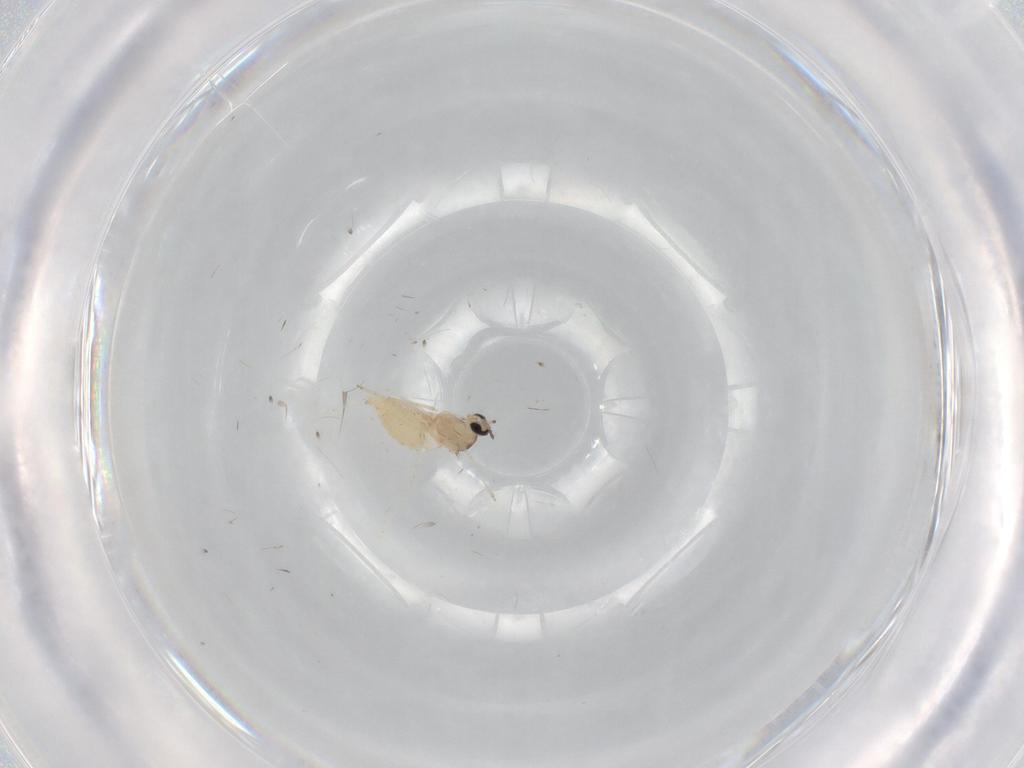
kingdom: Animalia
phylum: Arthropoda
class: Insecta
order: Diptera
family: Cecidomyiidae
